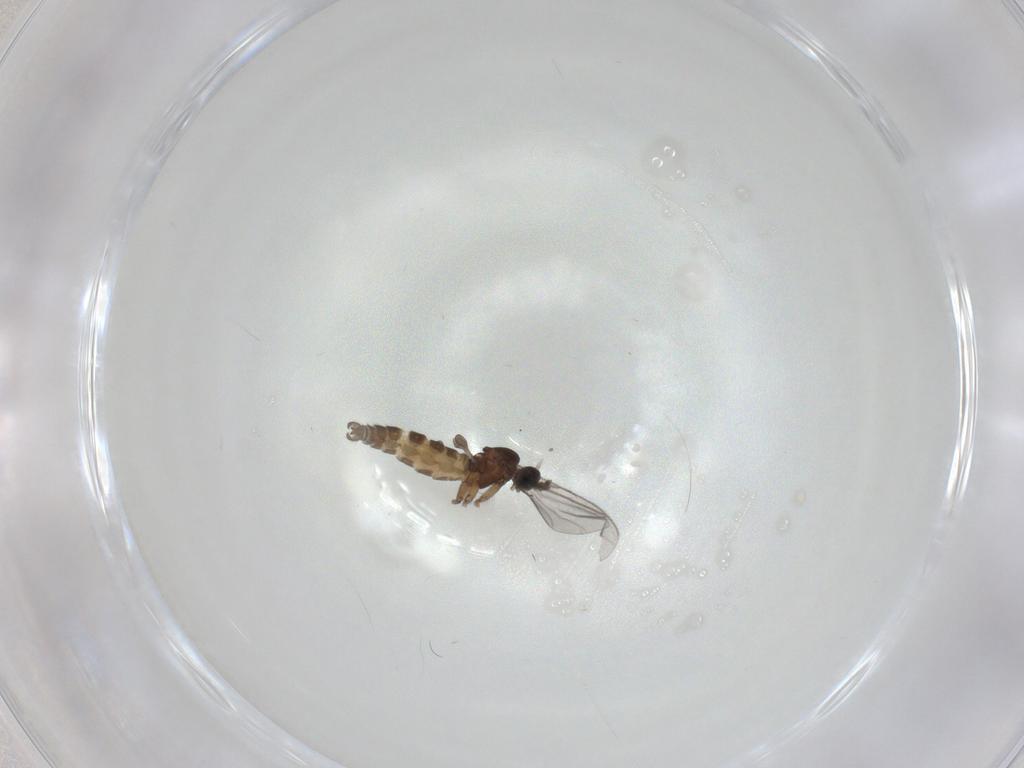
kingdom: Animalia
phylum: Arthropoda
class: Insecta
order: Diptera
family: Sciaridae
